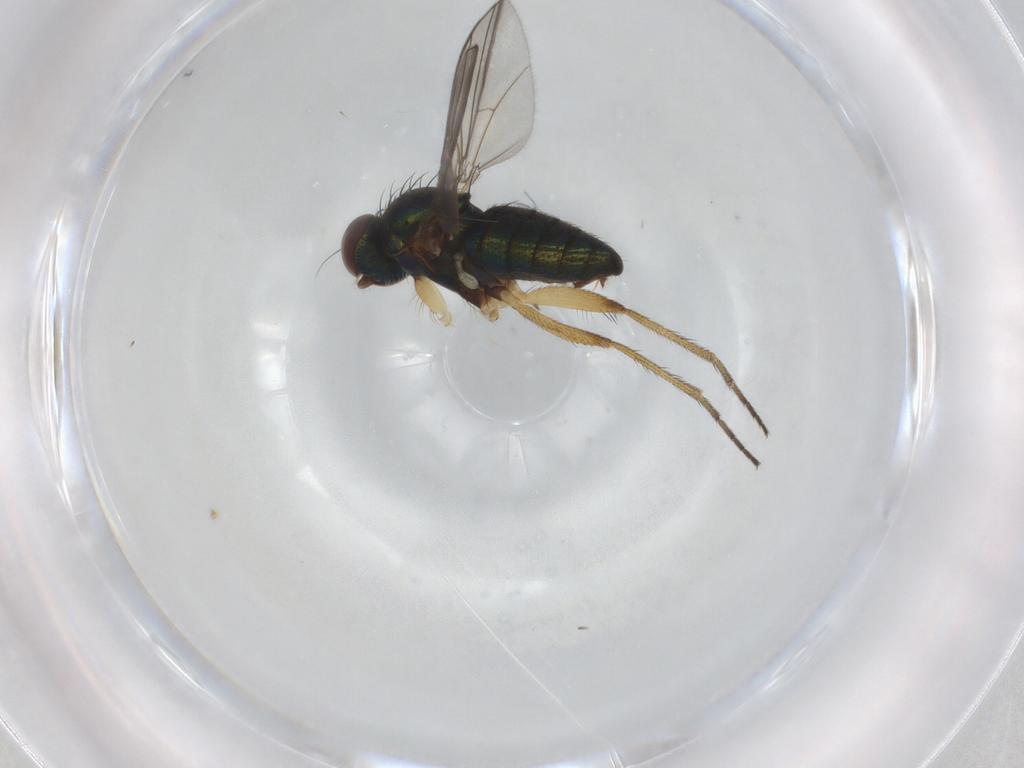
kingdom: Animalia
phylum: Arthropoda
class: Insecta
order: Diptera
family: Dolichopodidae
